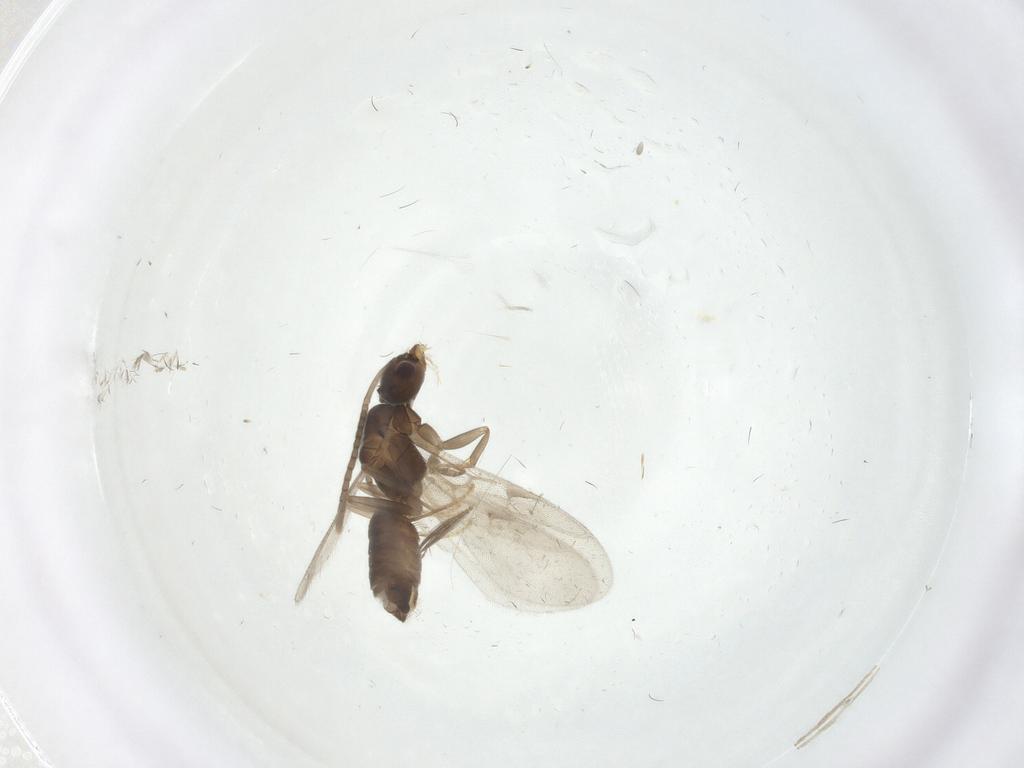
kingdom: Animalia
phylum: Arthropoda
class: Insecta
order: Hymenoptera
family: Formicidae
